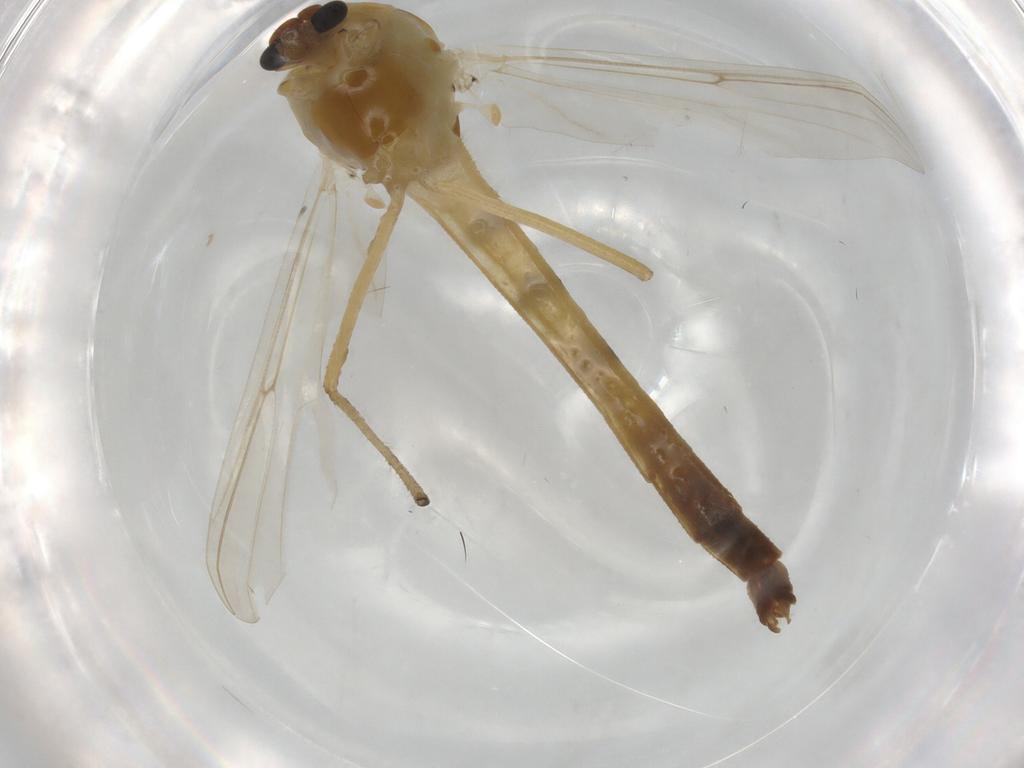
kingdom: Animalia
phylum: Arthropoda
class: Insecta
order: Diptera
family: Chironomidae
